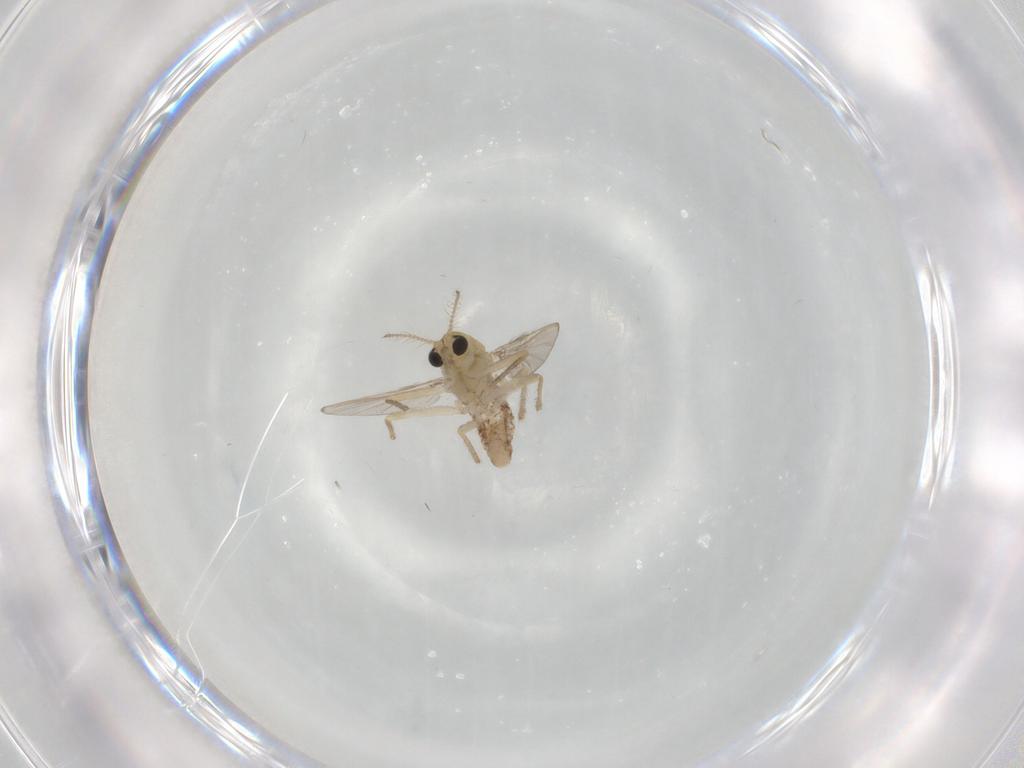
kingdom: Animalia
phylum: Arthropoda
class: Insecta
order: Diptera
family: Chironomidae
